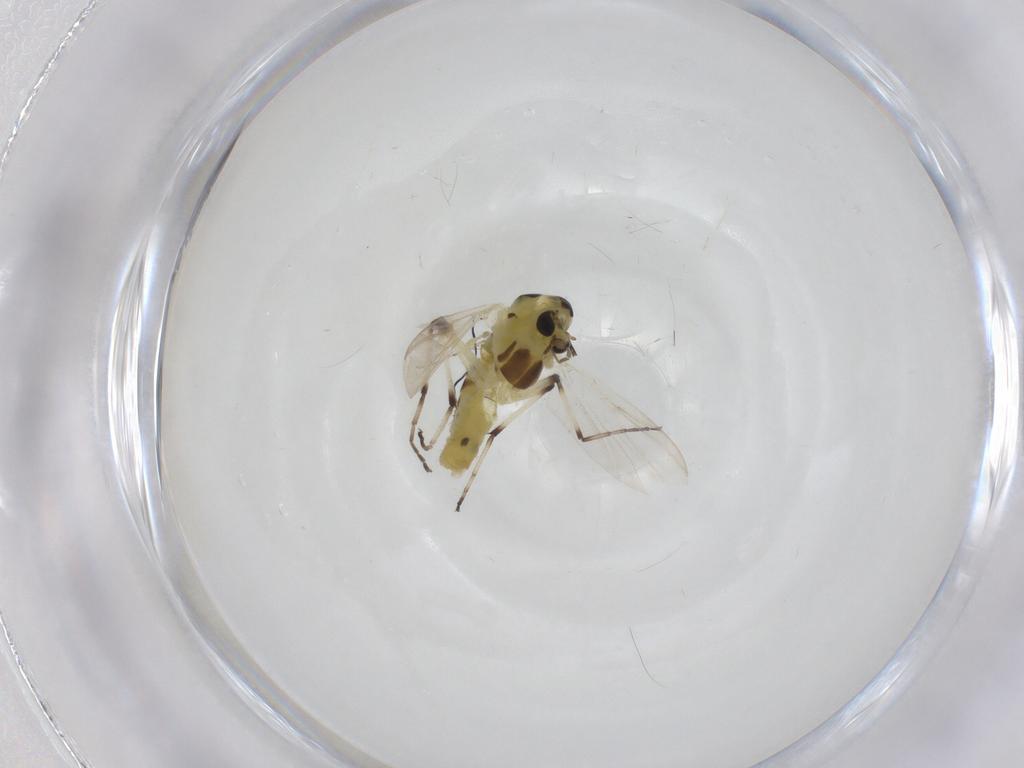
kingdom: Animalia
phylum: Arthropoda
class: Insecta
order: Diptera
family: Chironomidae
